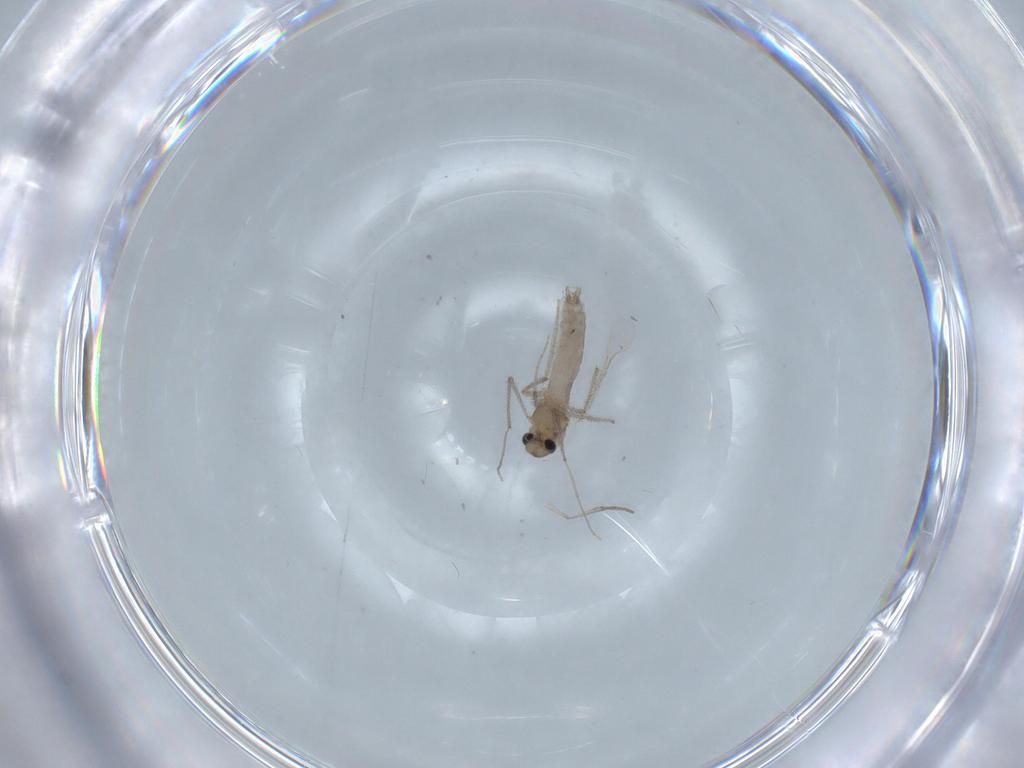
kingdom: Animalia
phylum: Arthropoda
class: Insecta
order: Diptera
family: Chironomidae
